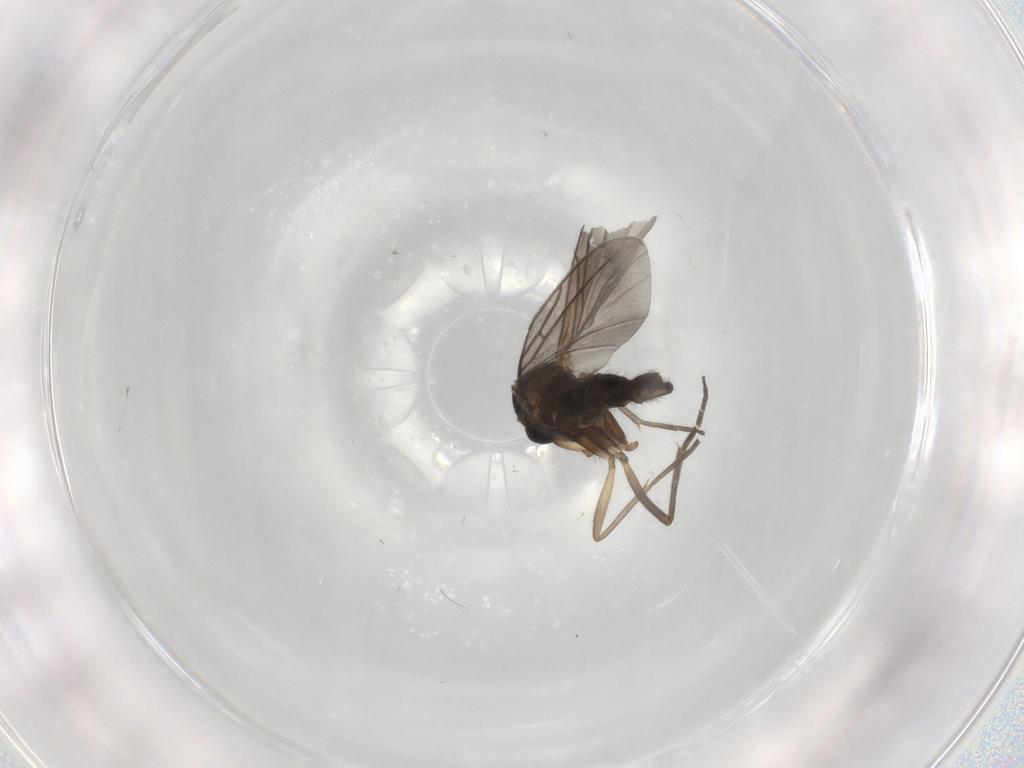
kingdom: Animalia
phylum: Arthropoda
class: Insecta
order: Diptera
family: Sciaridae
